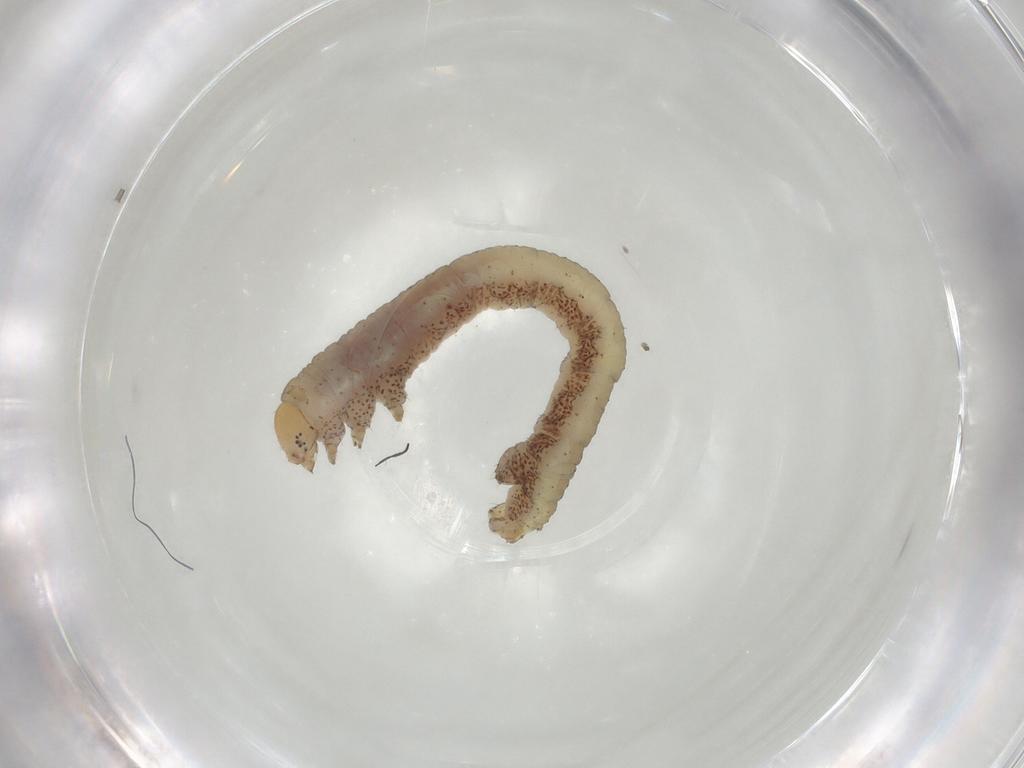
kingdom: Animalia
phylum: Arthropoda
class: Insecta
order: Lepidoptera
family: Geometridae
